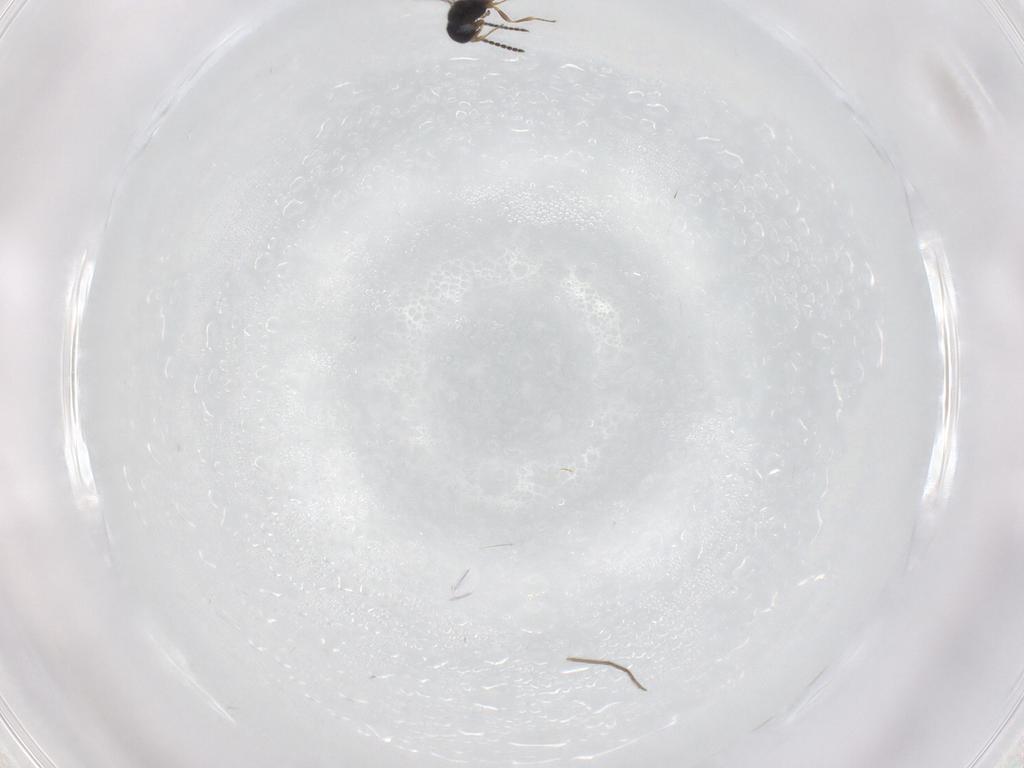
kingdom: Animalia
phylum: Arthropoda
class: Insecta
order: Hymenoptera
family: Scelionidae
